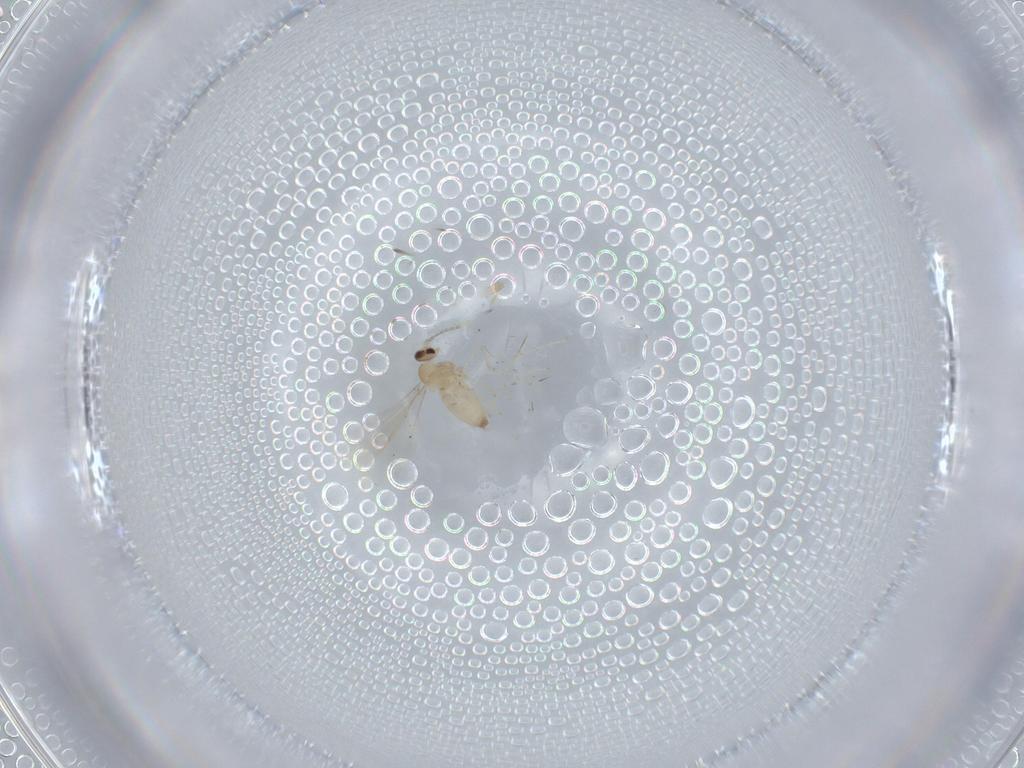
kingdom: Animalia
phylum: Arthropoda
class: Insecta
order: Diptera
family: Cecidomyiidae
